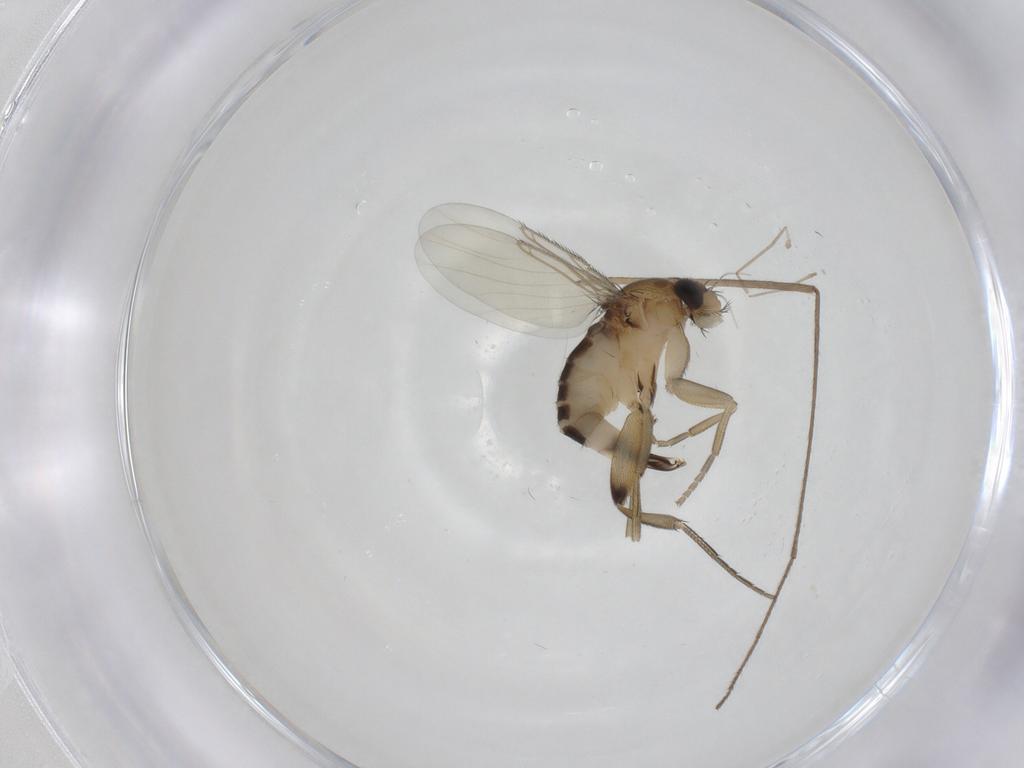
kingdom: Animalia
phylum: Arthropoda
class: Insecta
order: Diptera
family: Phoridae
